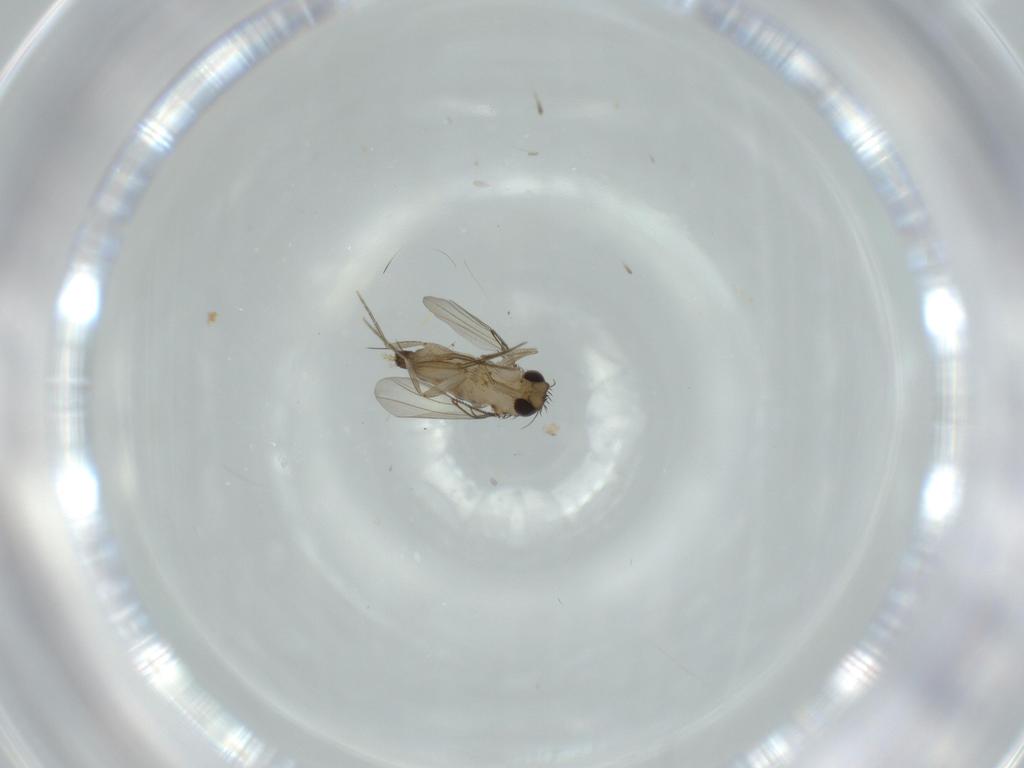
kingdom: Animalia
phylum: Arthropoda
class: Insecta
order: Diptera
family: Phoridae
